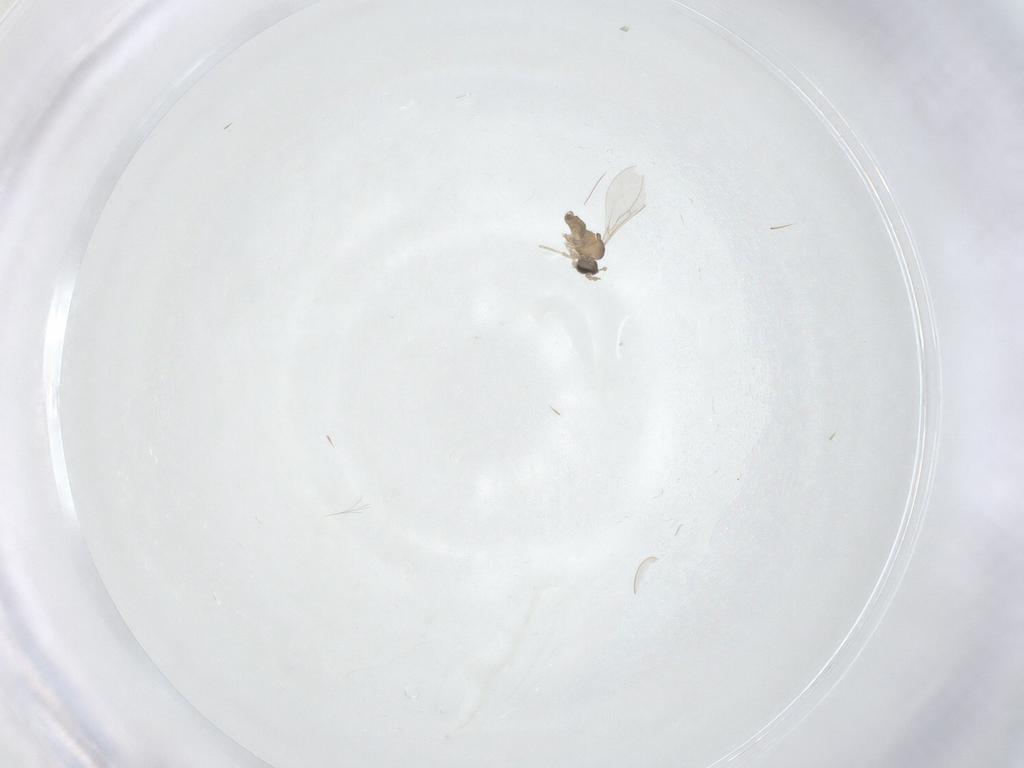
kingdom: Animalia
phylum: Arthropoda
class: Insecta
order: Diptera
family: Cecidomyiidae
